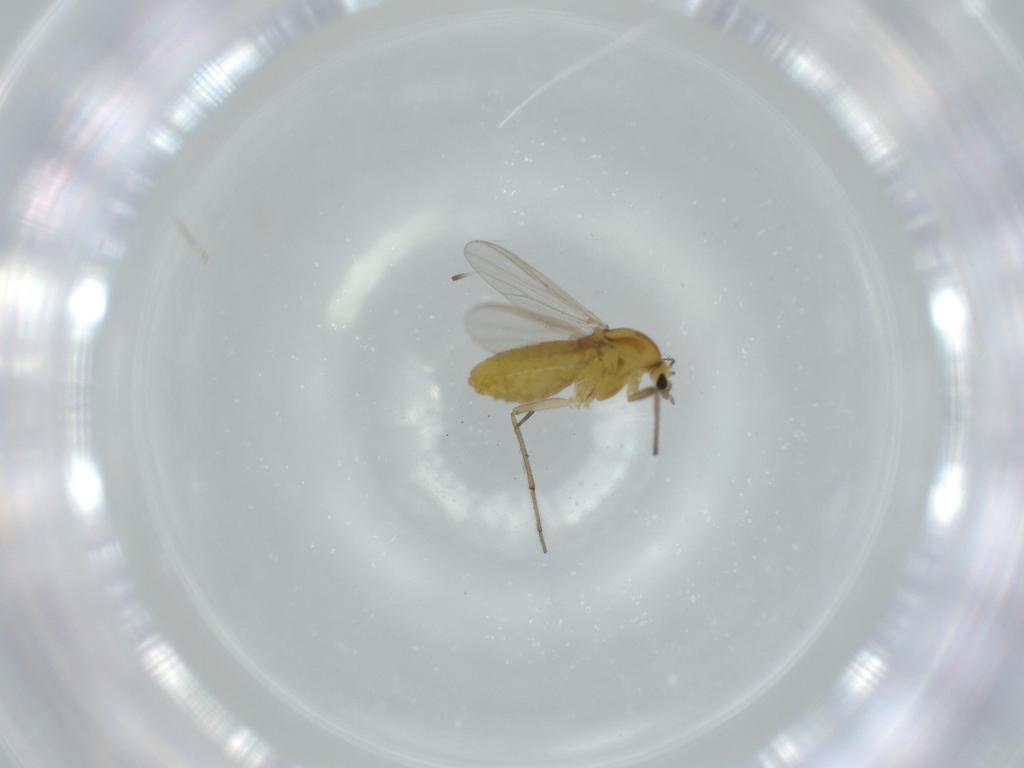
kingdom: Animalia
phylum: Arthropoda
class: Insecta
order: Diptera
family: Chironomidae
